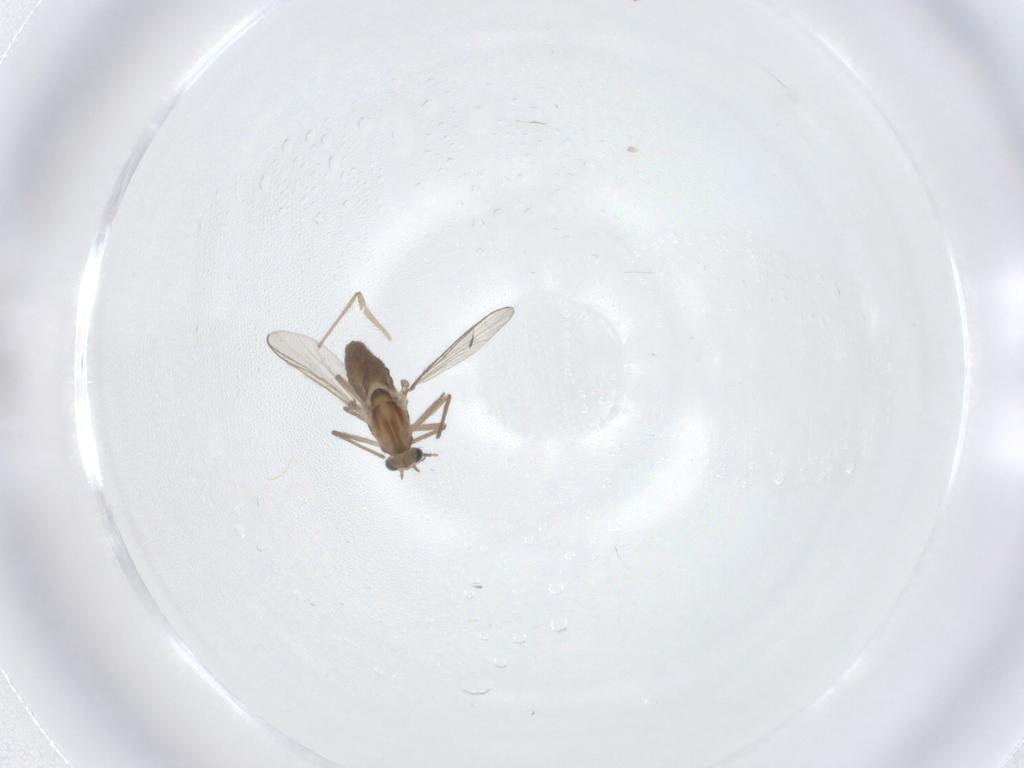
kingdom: Animalia
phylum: Arthropoda
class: Insecta
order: Diptera
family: Chironomidae
